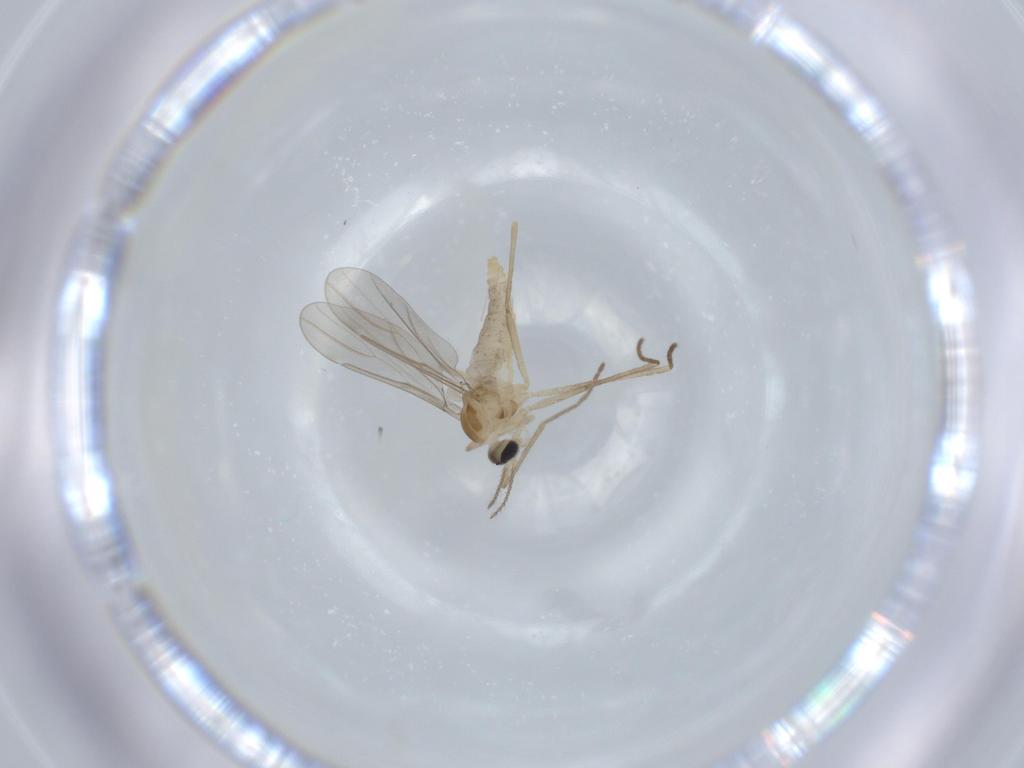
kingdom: Animalia
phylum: Arthropoda
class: Insecta
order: Diptera
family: Cecidomyiidae
